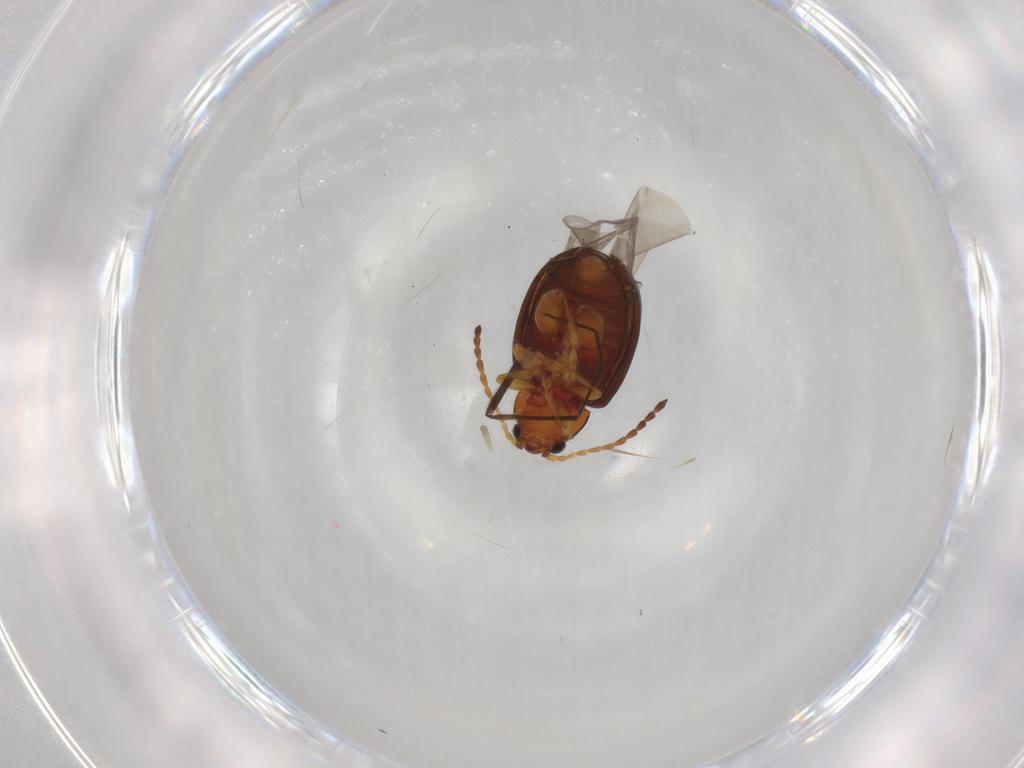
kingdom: Animalia
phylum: Arthropoda
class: Insecta
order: Coleoptera
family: Chrysomelidae
